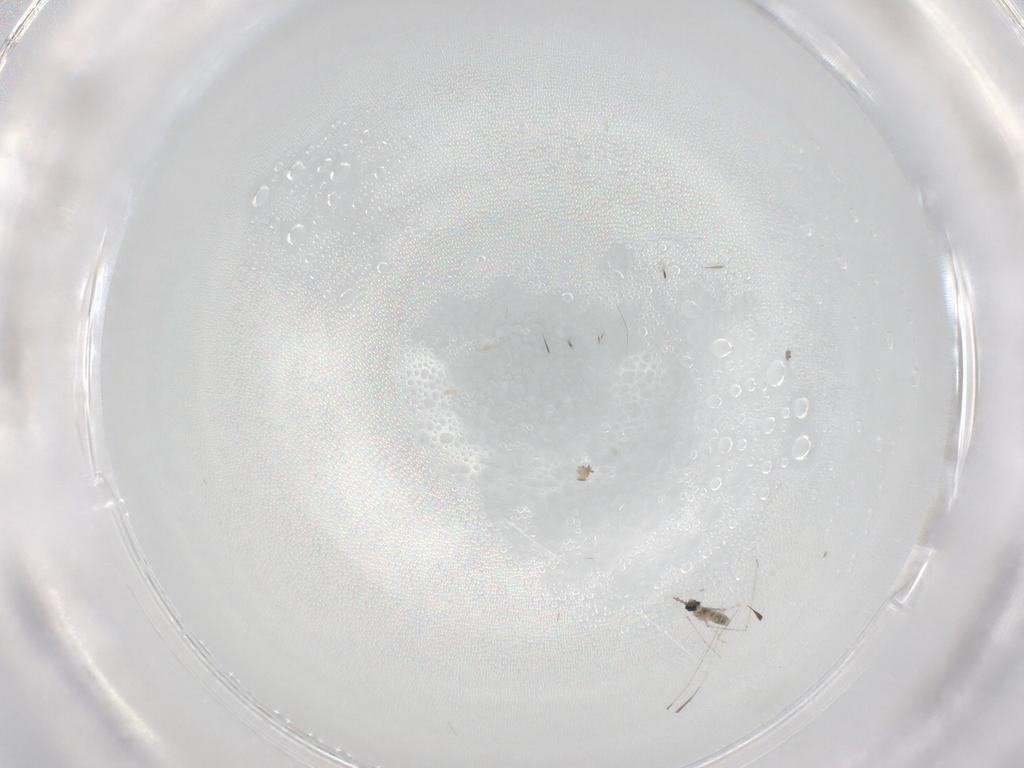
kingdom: Animalia
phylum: Arthropoda
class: Insecta
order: Diptera
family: Cecidomyiidae
